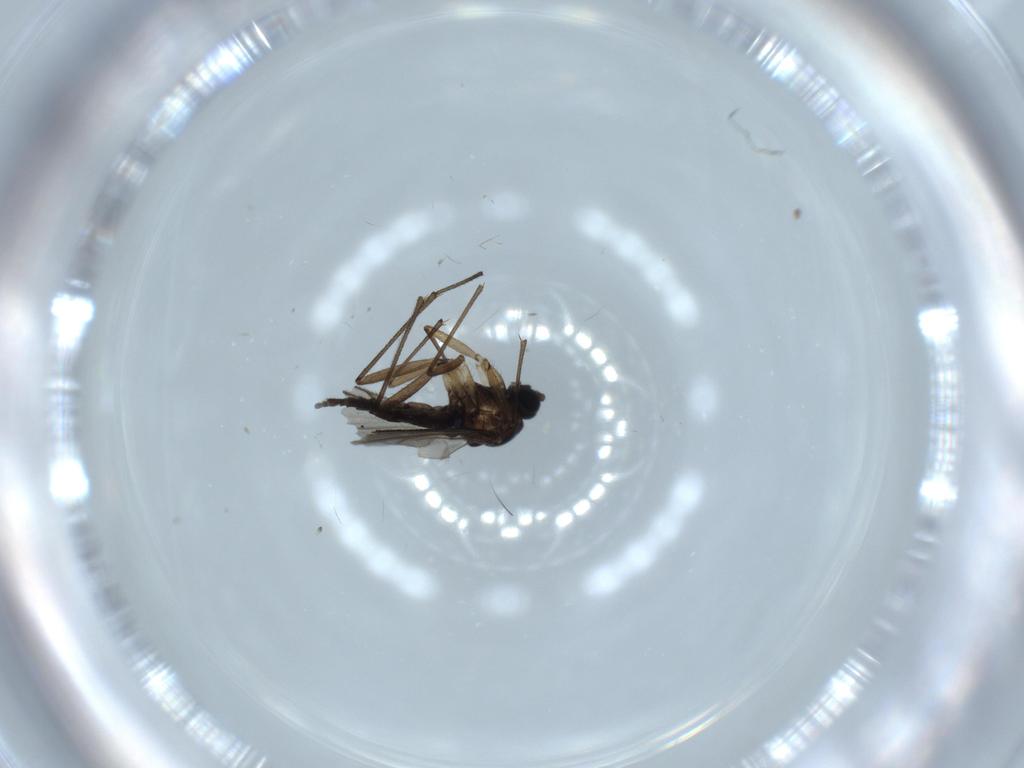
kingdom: Animalia
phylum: Arthropoda
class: Insecta
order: Diptera
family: Sciaridae
